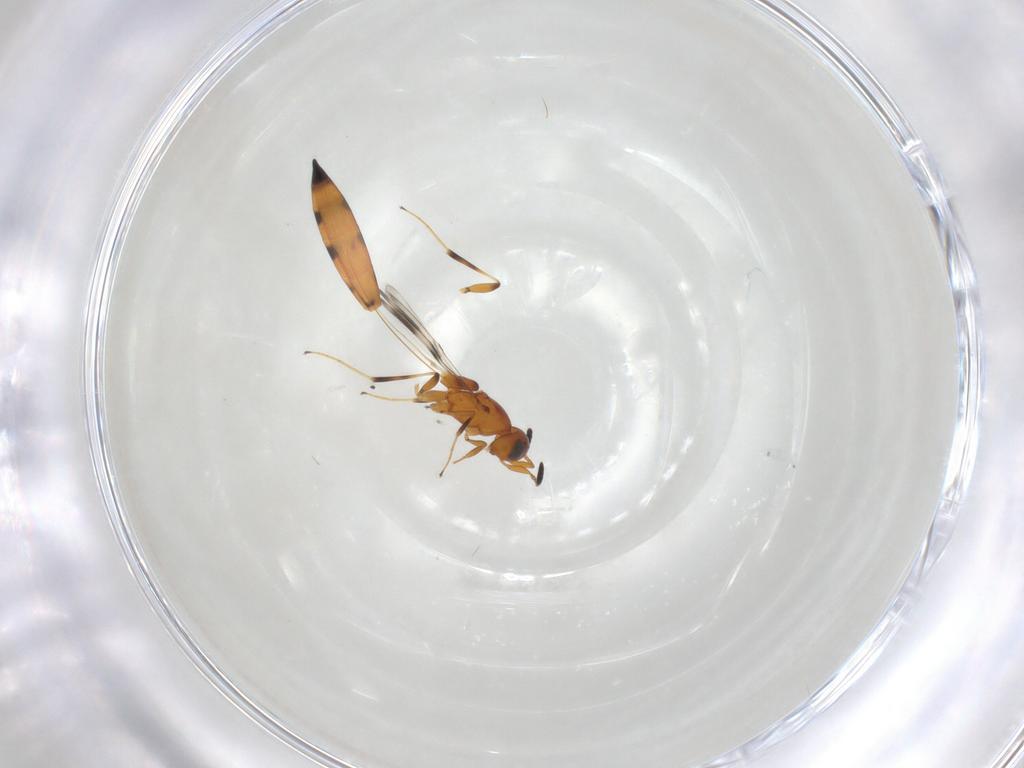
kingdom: Animalia
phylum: Arthropoda
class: Insecta
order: Hymenoptera
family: Scelionidae
